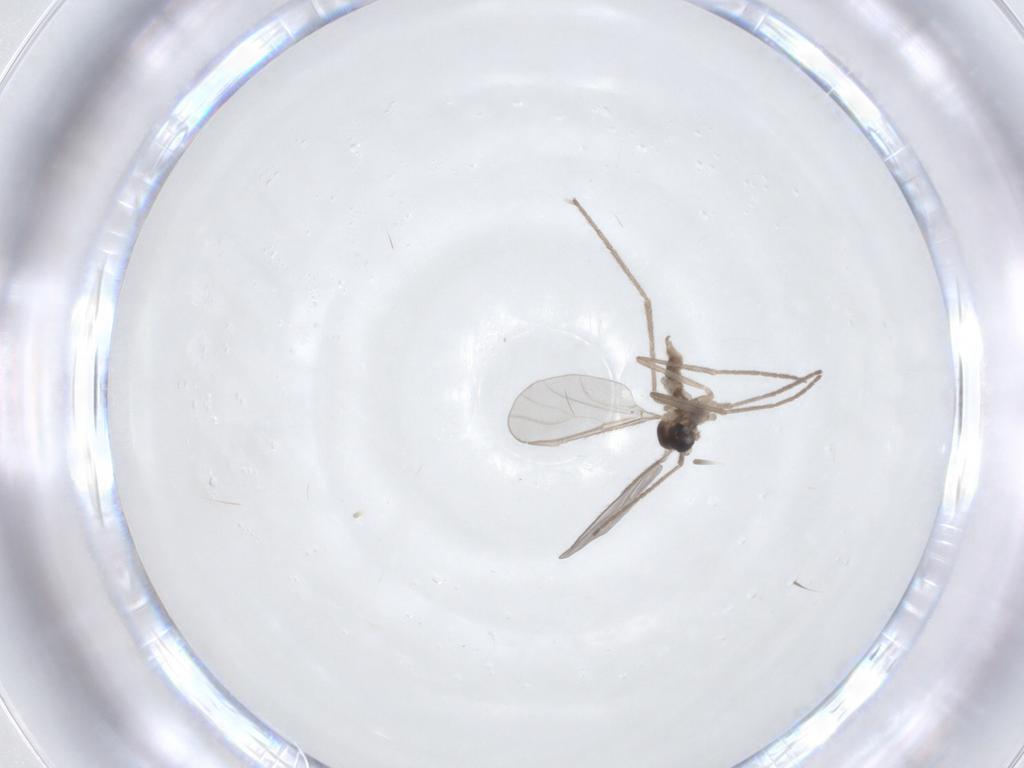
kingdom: Animalia
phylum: Arthropoda
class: Insecta
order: Diptera
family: Cecidomyiidae
